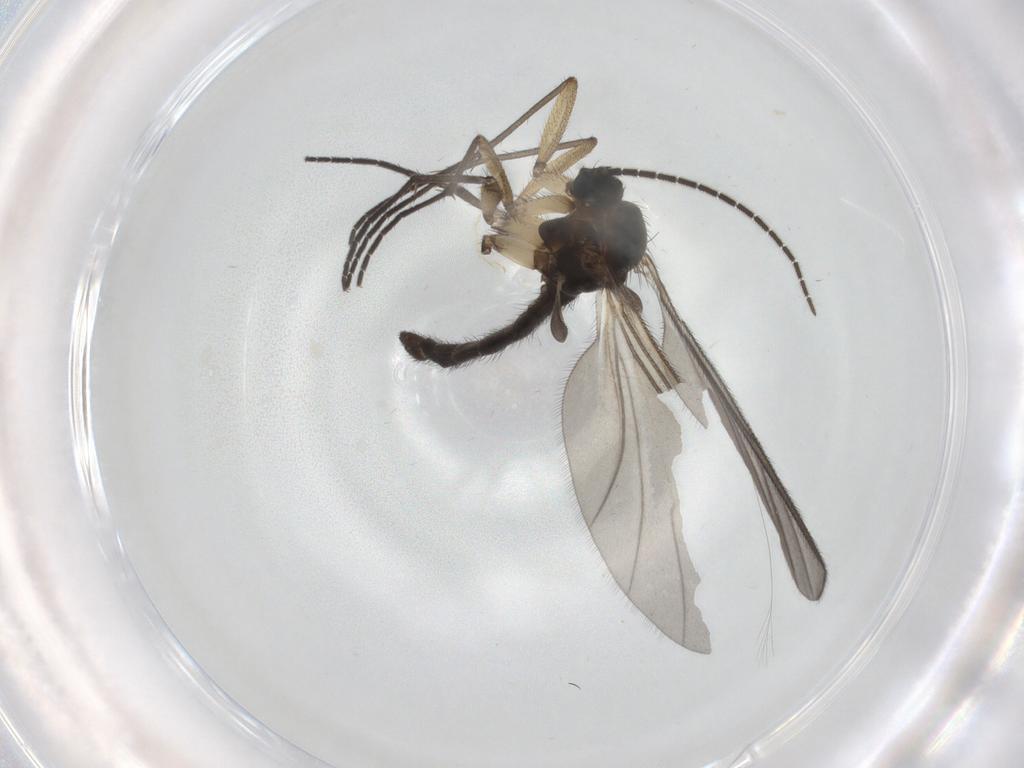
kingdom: Animalia
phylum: Arthropoda
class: Insecta
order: Diptera
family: Sciaridae
